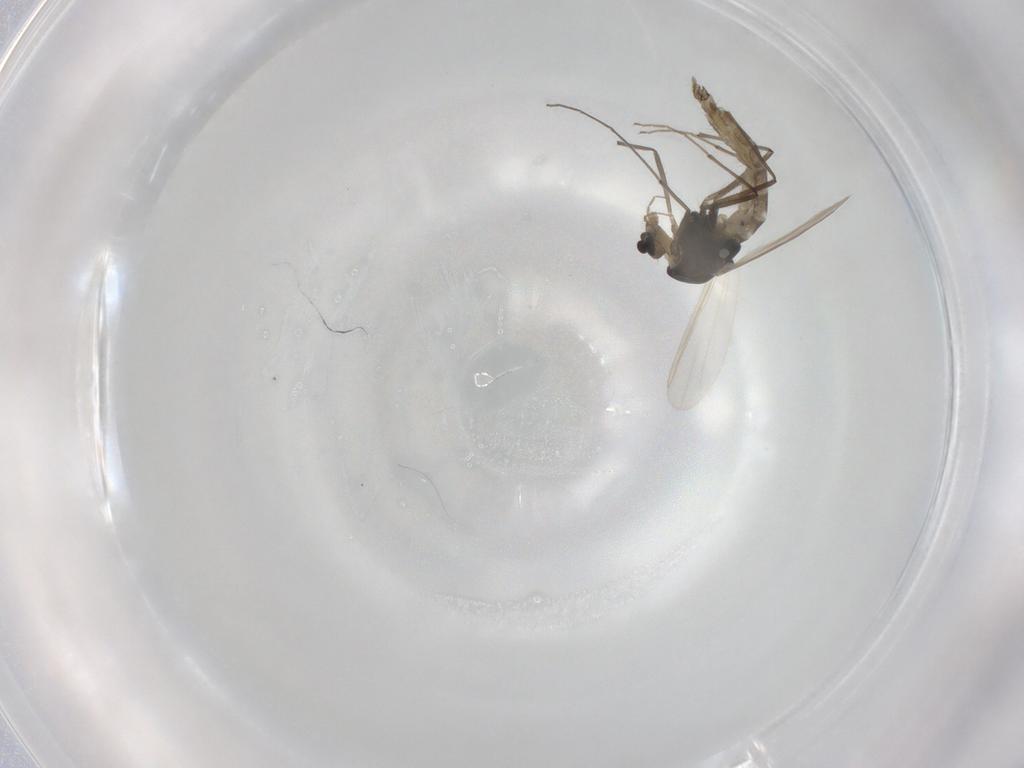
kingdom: Animalia
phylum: Arthropoda
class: Insecta
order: Diptera
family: Chironomidae
